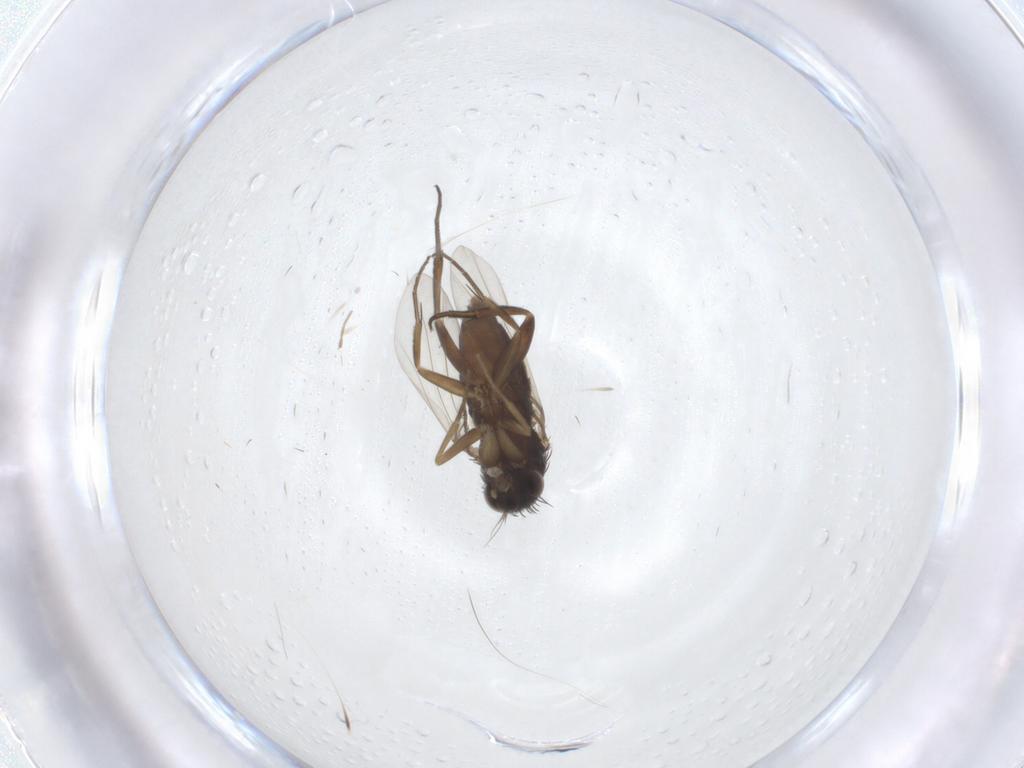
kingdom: Animalia
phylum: Arthropoda
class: Insecta
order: Diptera
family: Phoridae
